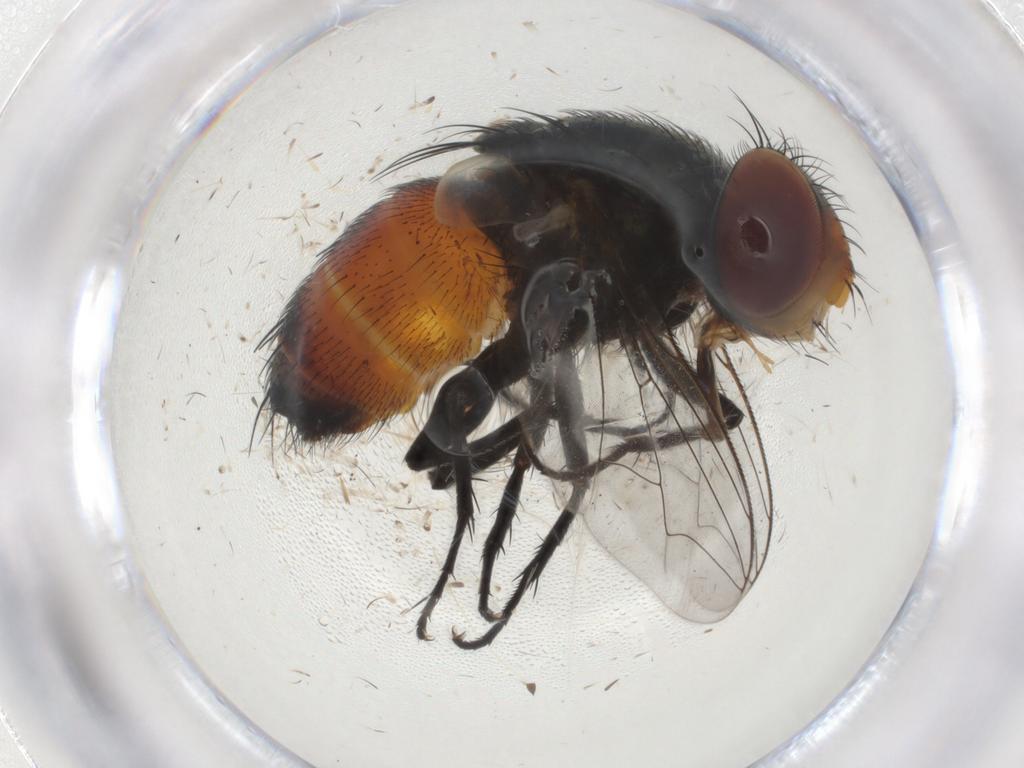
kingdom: Animalia
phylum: Arthropoda
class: Insecta
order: Diptera
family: Sarcophagidae
